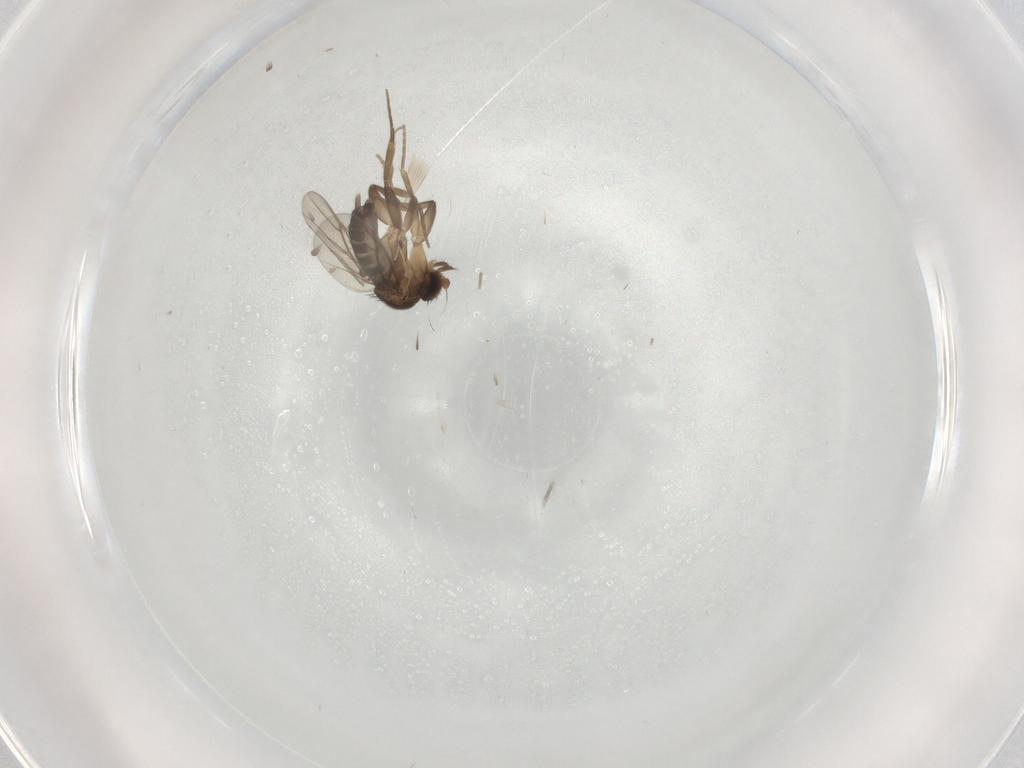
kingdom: Animalia
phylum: Arthropoda
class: Insecta
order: Diptera
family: Phoridae
